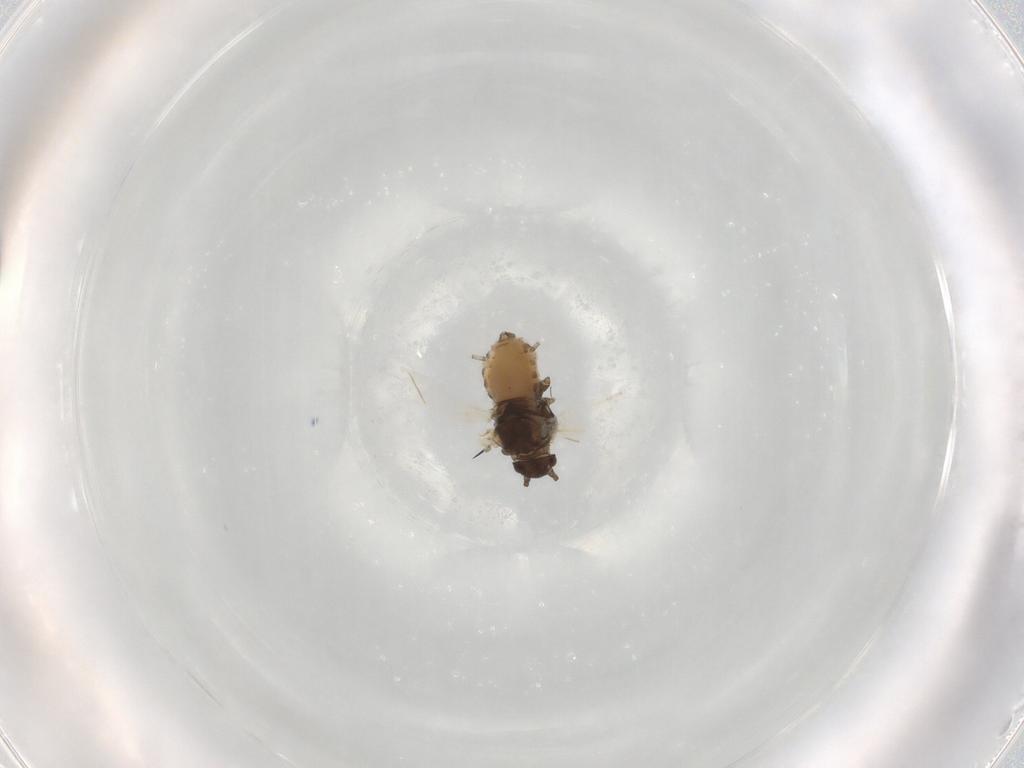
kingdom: Animalia
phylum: Arthropoda
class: Insecta
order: Hemiptera
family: Aphididae
